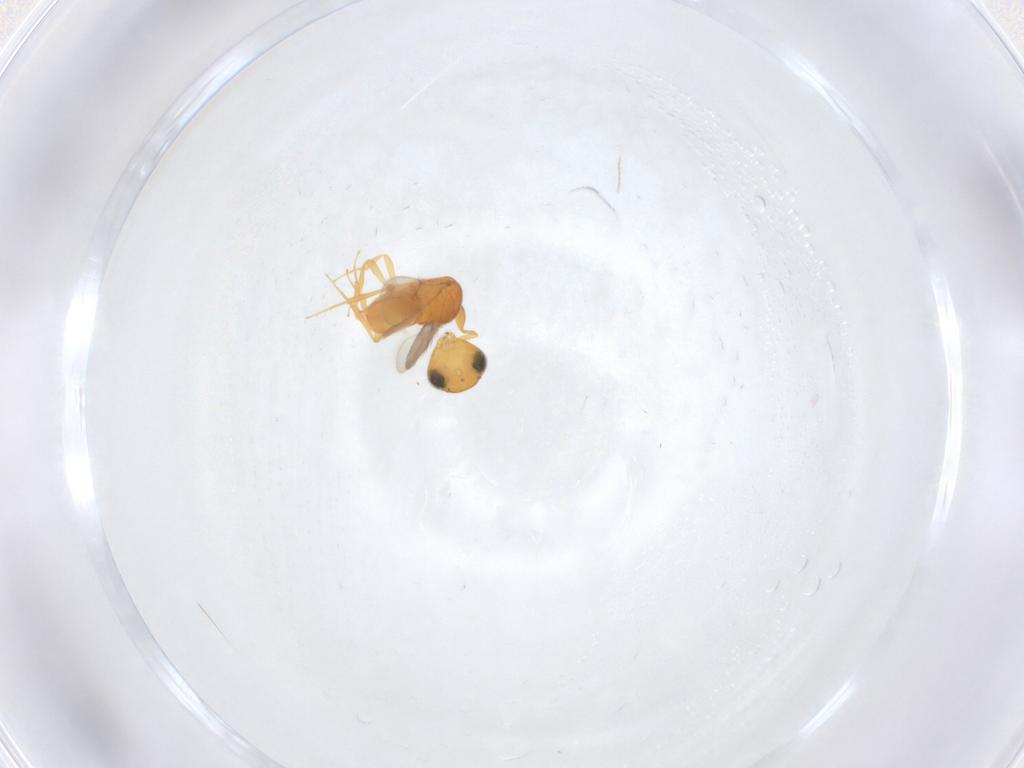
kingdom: Animalia
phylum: Arthropoda
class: Insecta
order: Hymenoptera
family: Scelionidae
